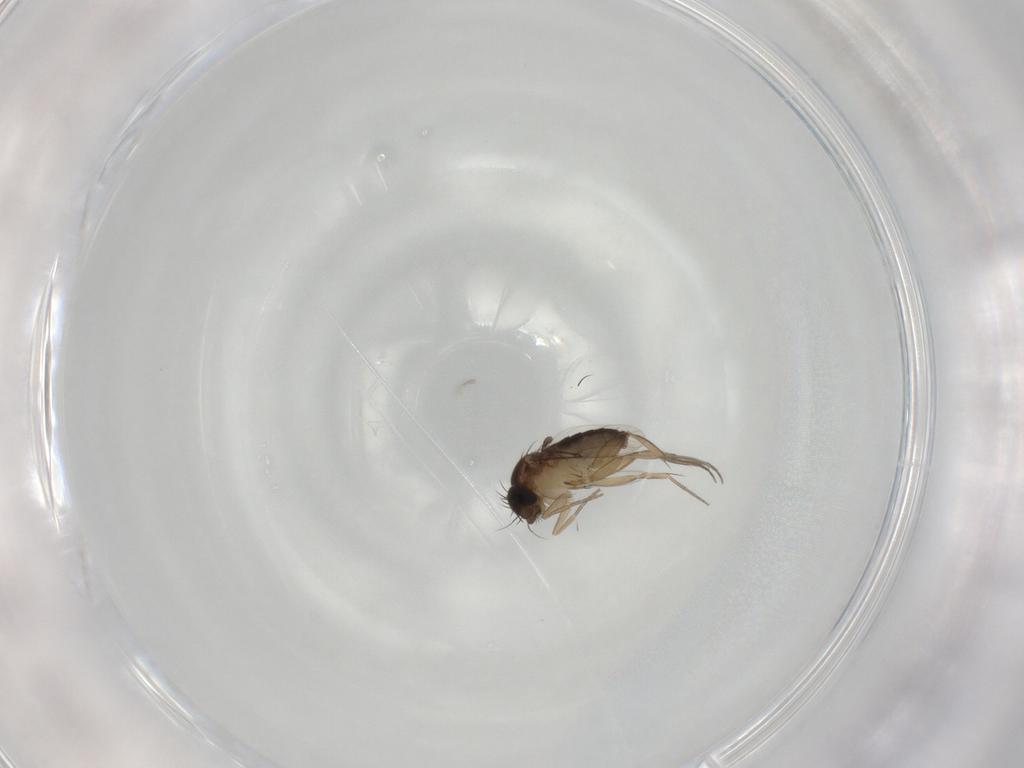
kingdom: Animalia
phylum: Arthropoda
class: Insecta
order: Diptera
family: Phoridae
